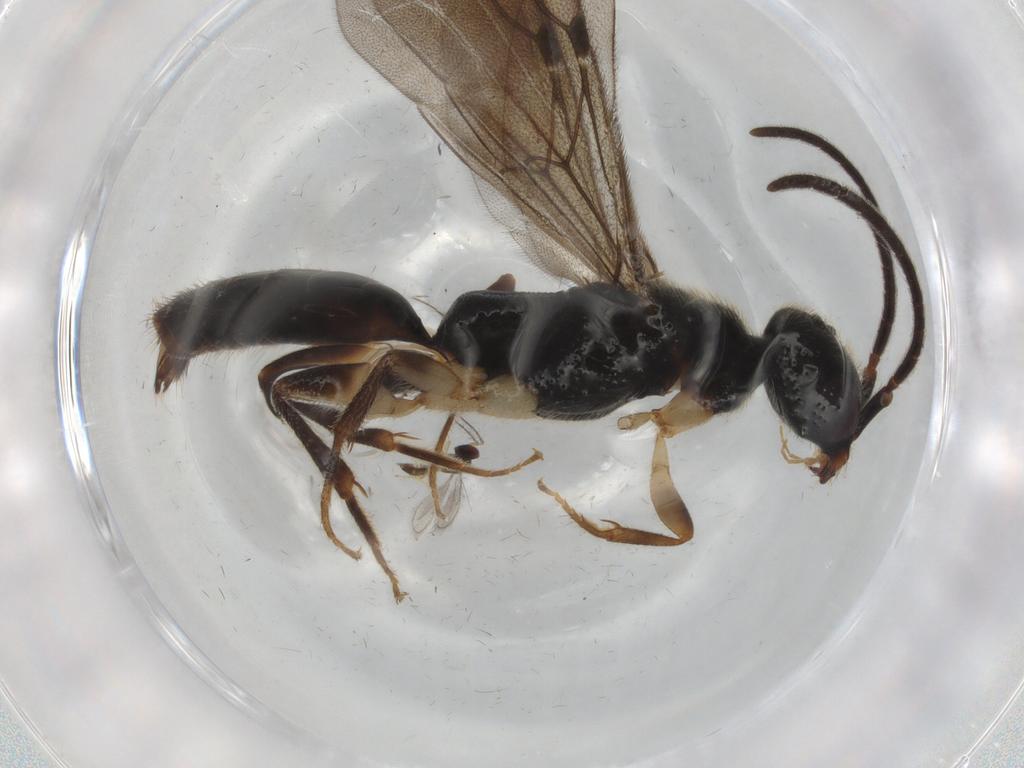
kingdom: Animalia
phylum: Arthropoda
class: Insecta
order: Hymenoptera
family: Bethylidae
